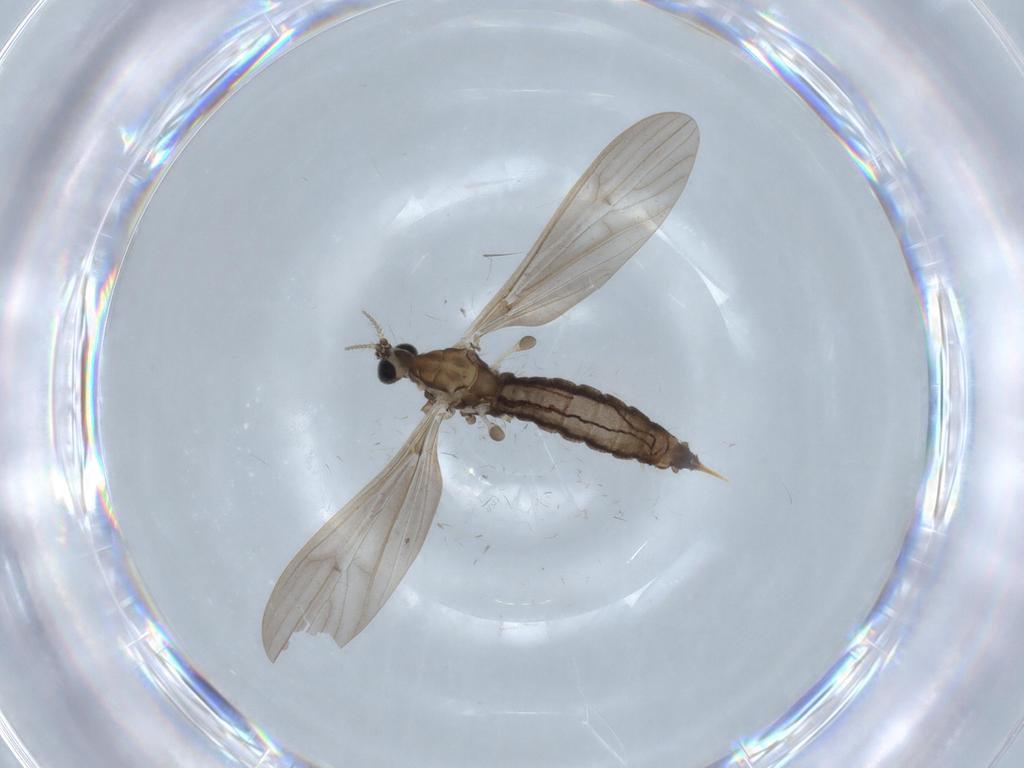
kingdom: Animalia
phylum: Arthropoda
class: Insecta
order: Diptera
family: Cecidomyiidae
